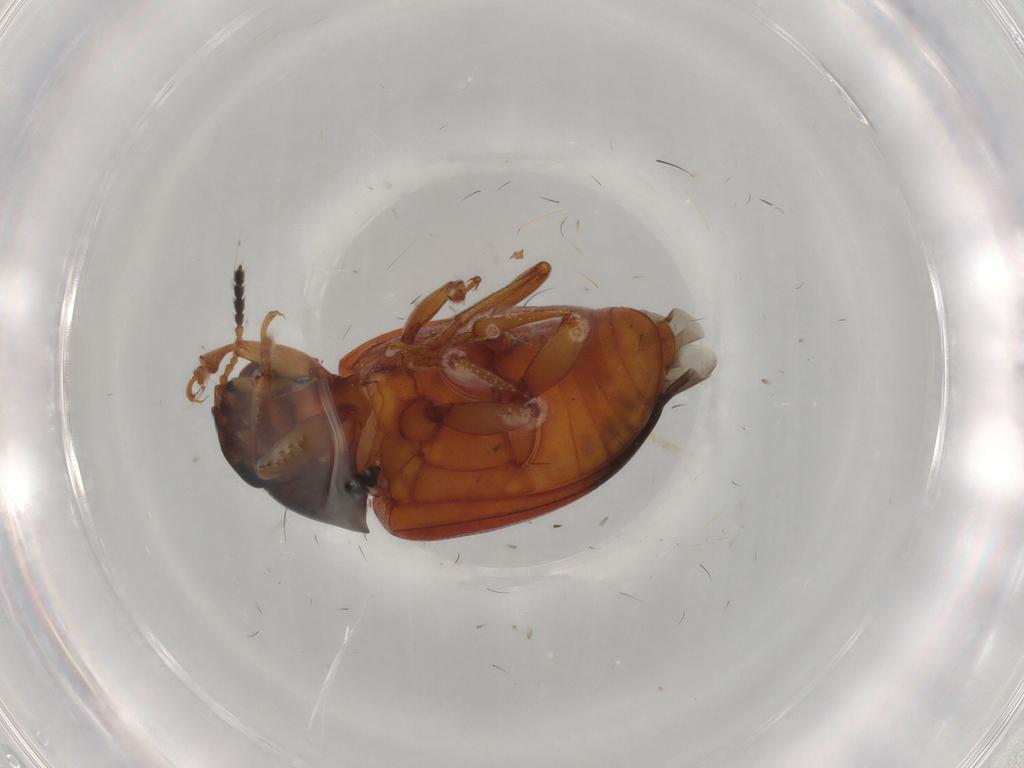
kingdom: Animalia
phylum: Arthropoda
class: Insecta
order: Coleoptera
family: Erotylidae
